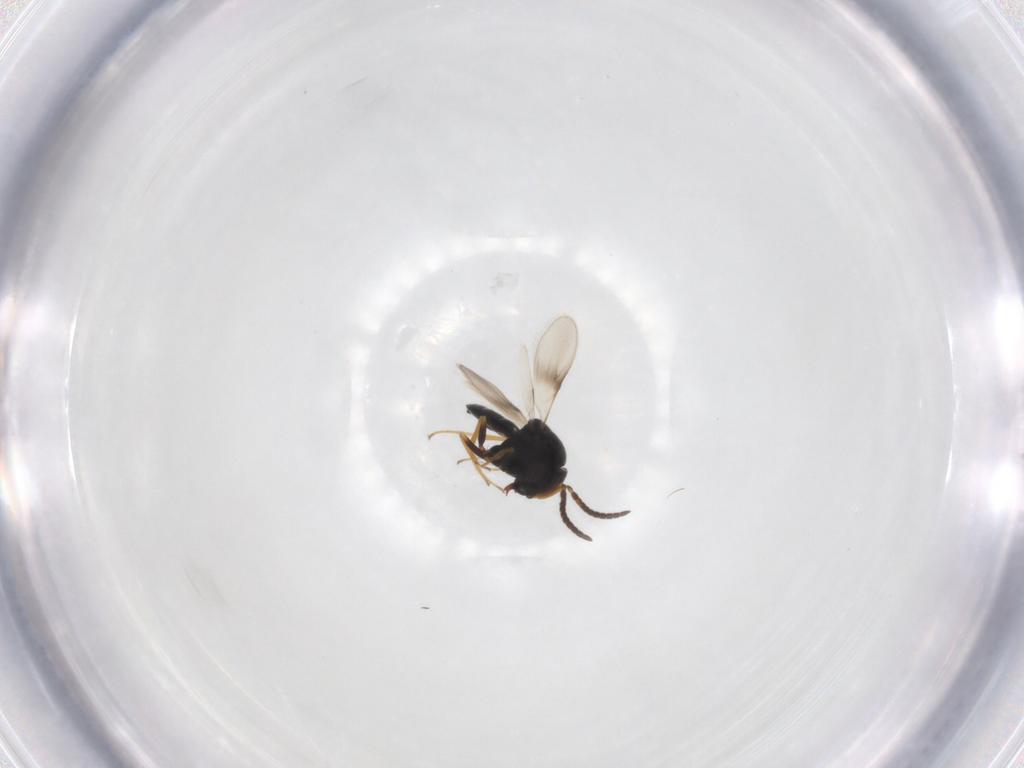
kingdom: Animalia
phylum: Arthropoda
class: Insecta
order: Hymenoptera
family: Scelionidae
